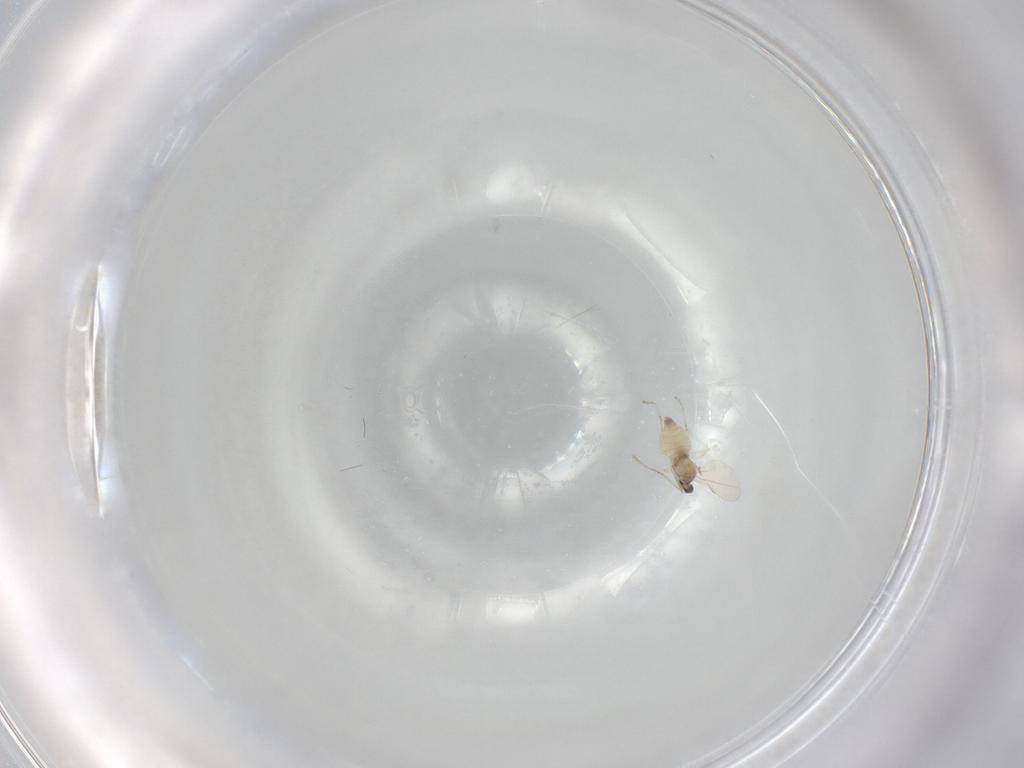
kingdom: Animalia
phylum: Arthropoda
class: Insecta
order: Diptera
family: Cecidomyiidae
